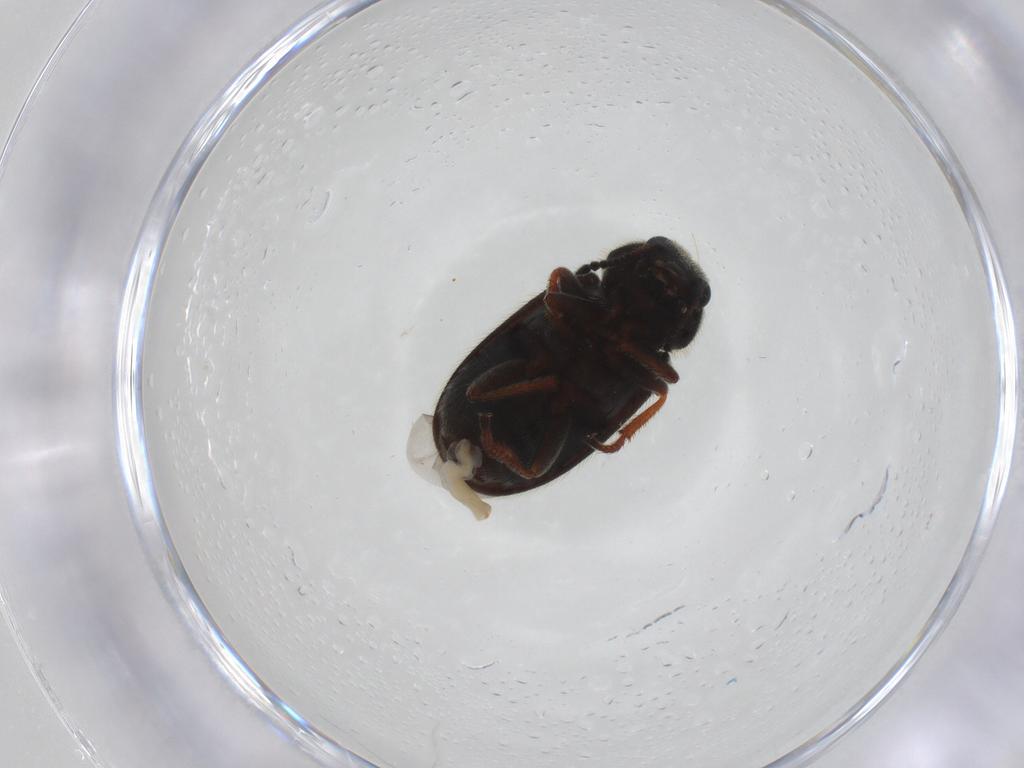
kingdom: Animalia
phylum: Arthropoda
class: Insecta
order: Coleoptera
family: Melyridae
